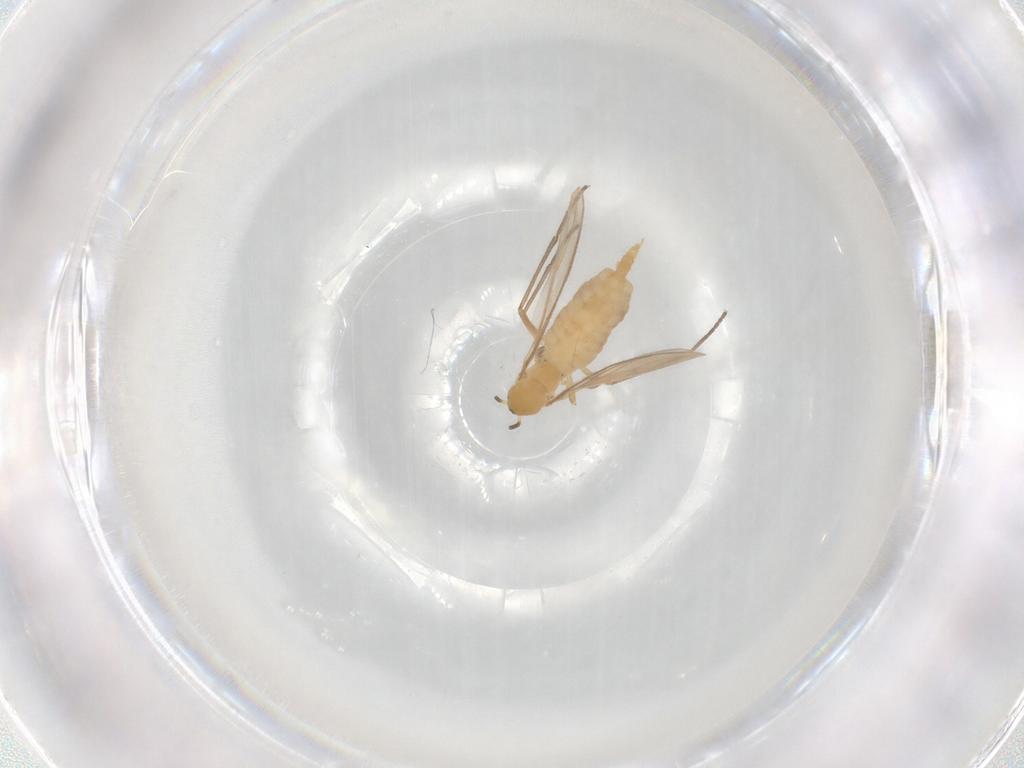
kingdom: Animalia
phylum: Arthropoda
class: Insecta
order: Diptera
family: Sciaridae
